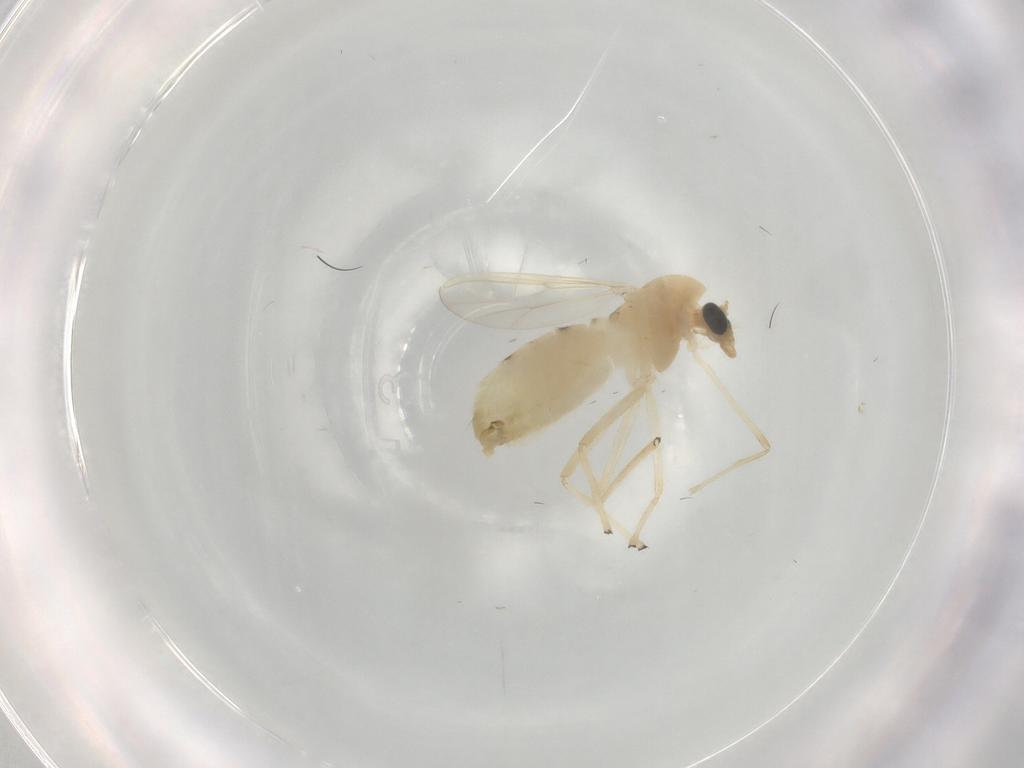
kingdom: Animalia
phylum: Arthropoda
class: Insecta
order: Diptera
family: Chironomidae
